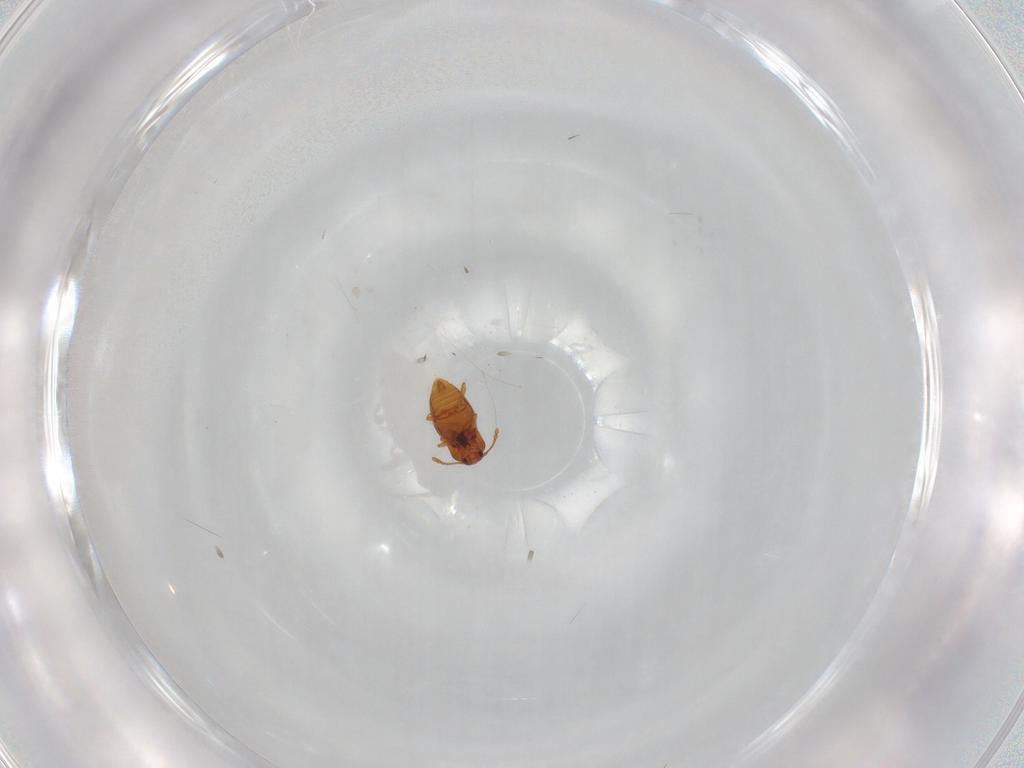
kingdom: Animalia
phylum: Arthropoda
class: Insecta
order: Coleoptera
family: Staphylinidae
